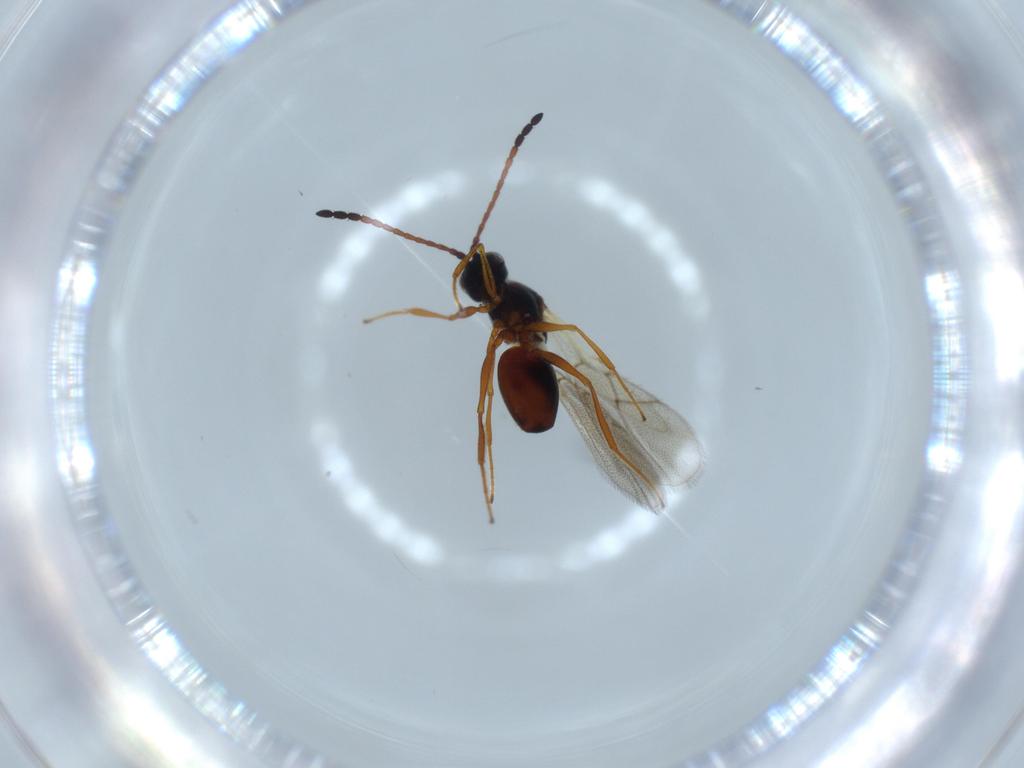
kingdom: Animalia
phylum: Arthropoda
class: Insecta
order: Hymenoptera
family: Figitidae
